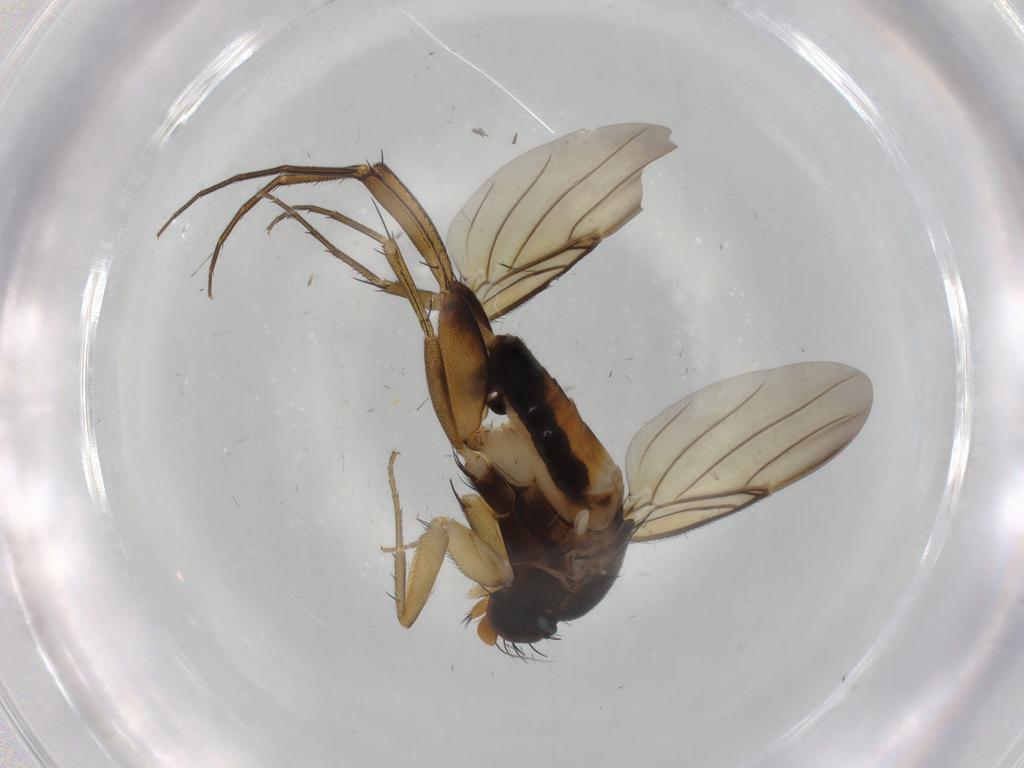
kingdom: Animalia
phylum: Arthropoda
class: Insecta
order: Diptera
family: Phoridae
